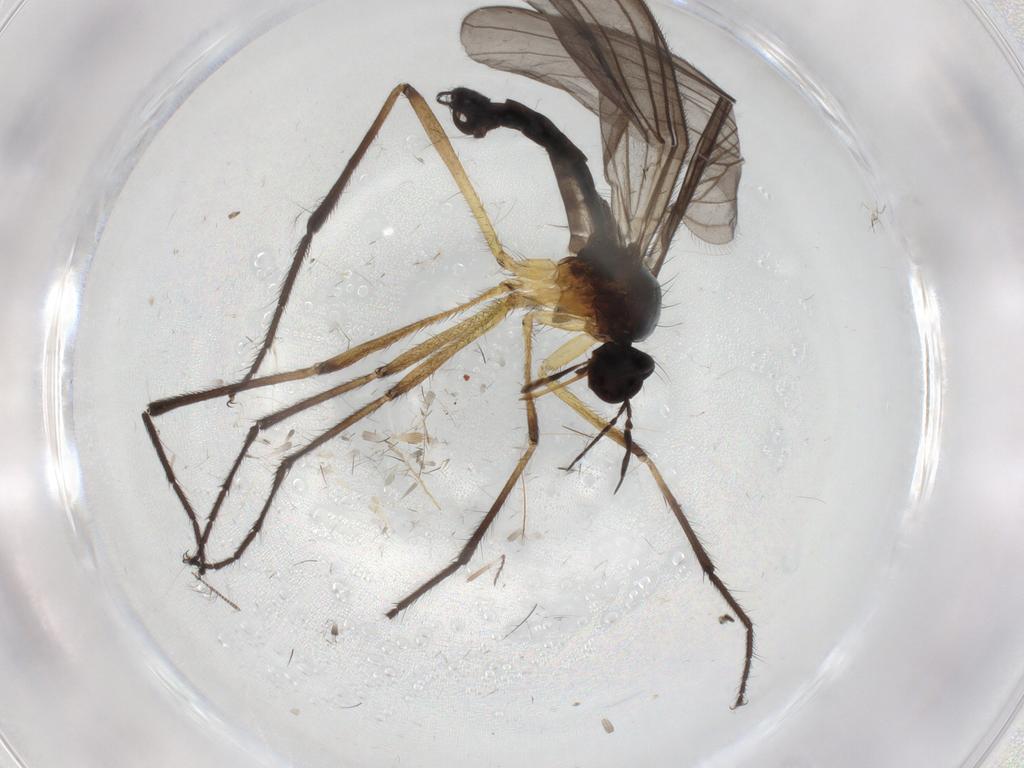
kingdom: Animalia
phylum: Arthropoda
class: Insecta
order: Diptera
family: Empididae
